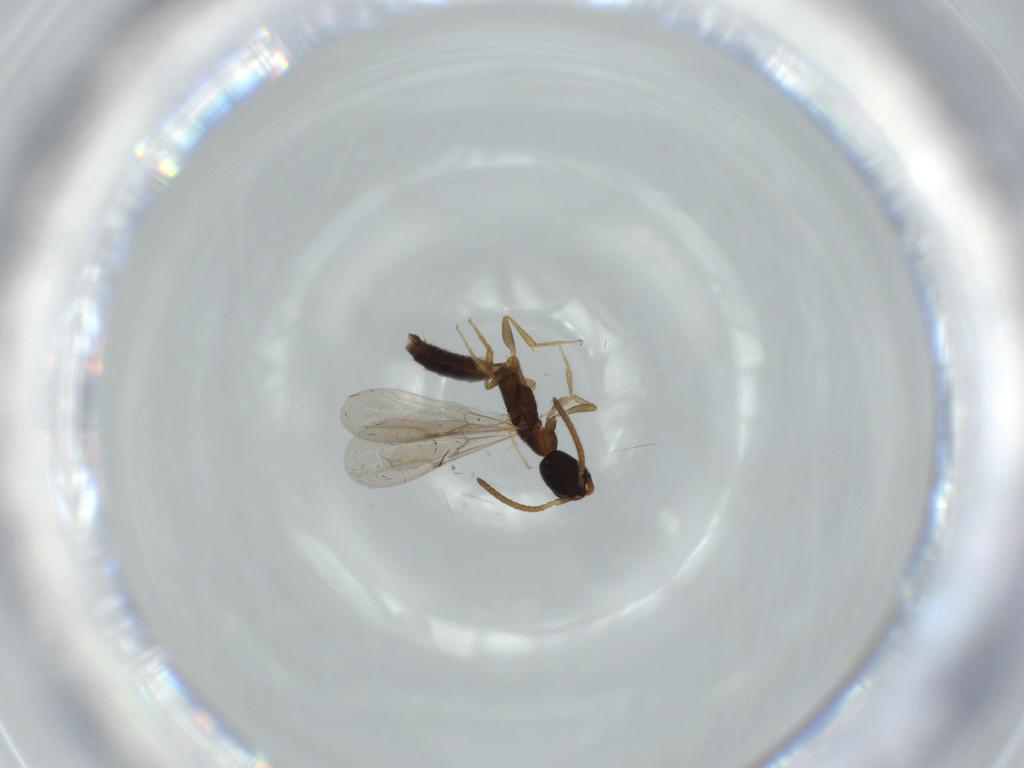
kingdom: Animalia
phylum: Arthropoda
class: Insecta
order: Hymenoptera
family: Bethylidae
